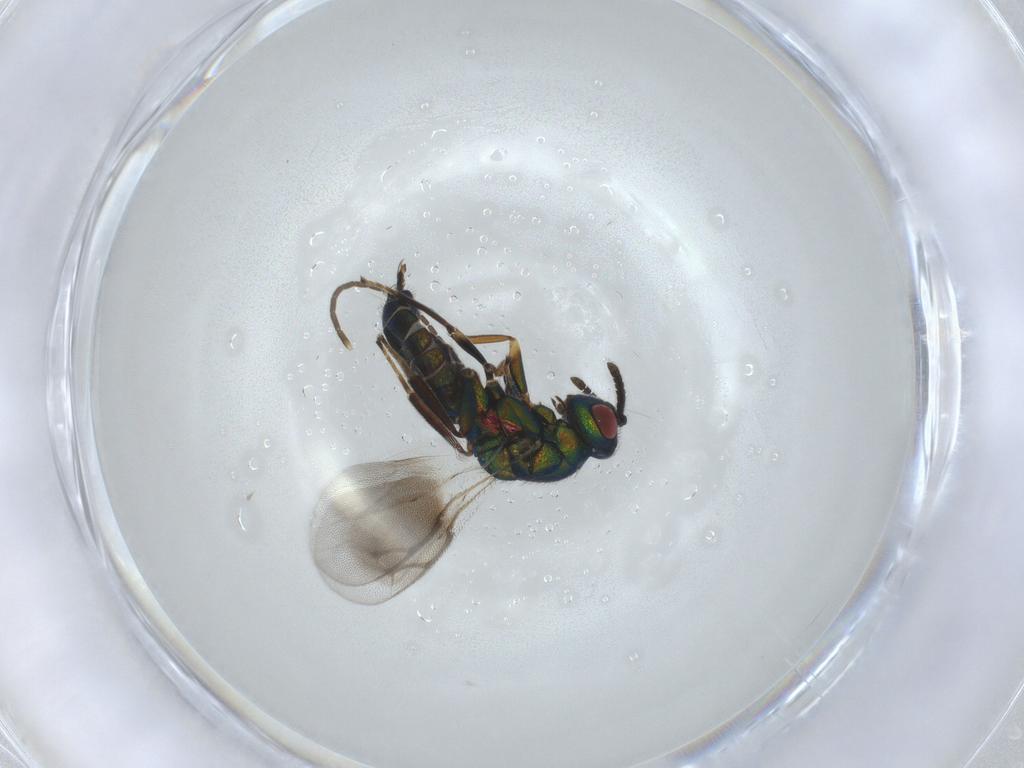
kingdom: Animalia
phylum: Arthropoda
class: Insecta
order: Hymenoptera
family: Pteromalidae
